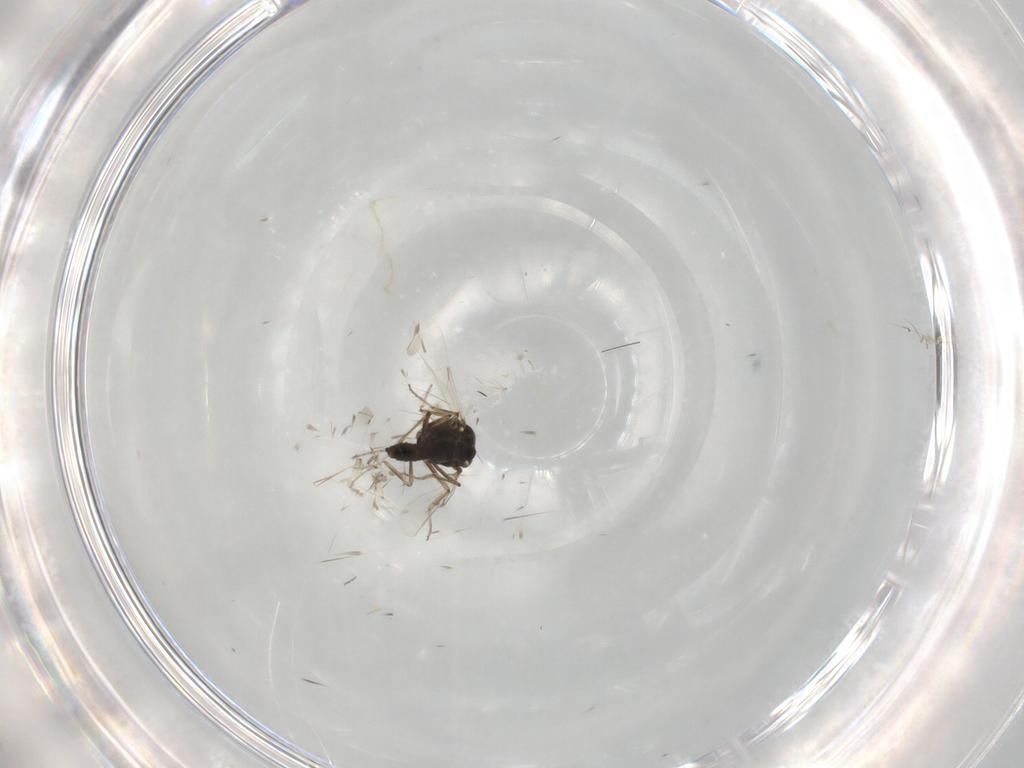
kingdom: Animalia
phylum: Arthropoda
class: Insecta
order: Diptera
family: Ceratopogonidae
